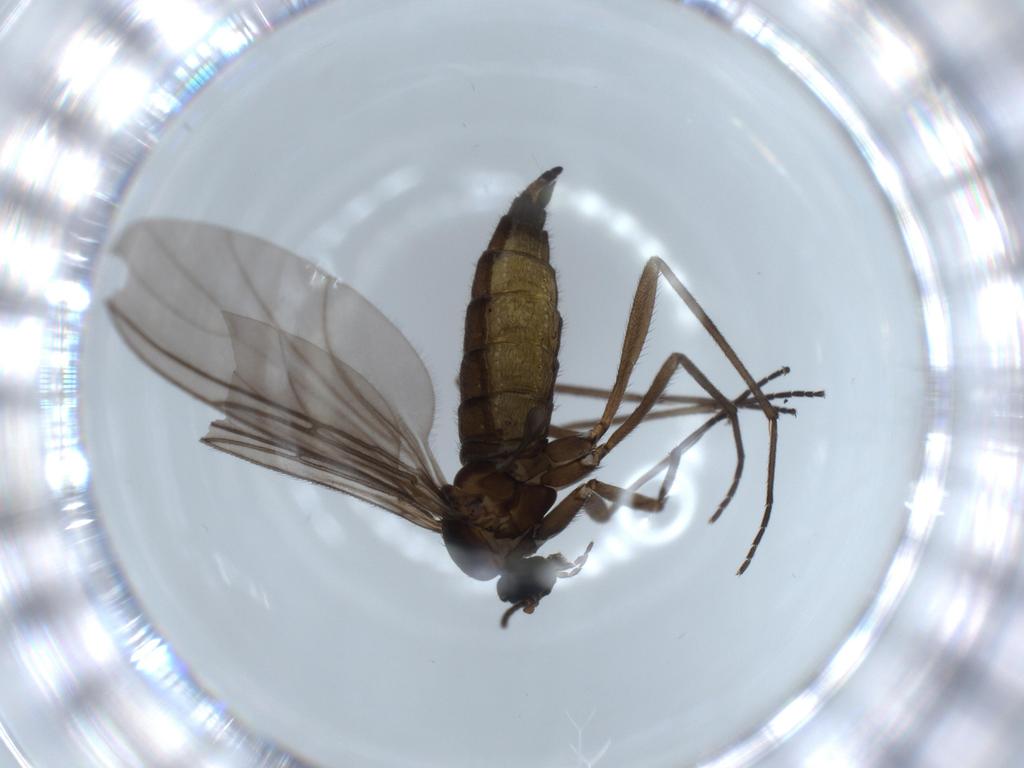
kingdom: Animalia
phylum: Arthropoda
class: Insecta
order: Diptera
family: Sciaridae
